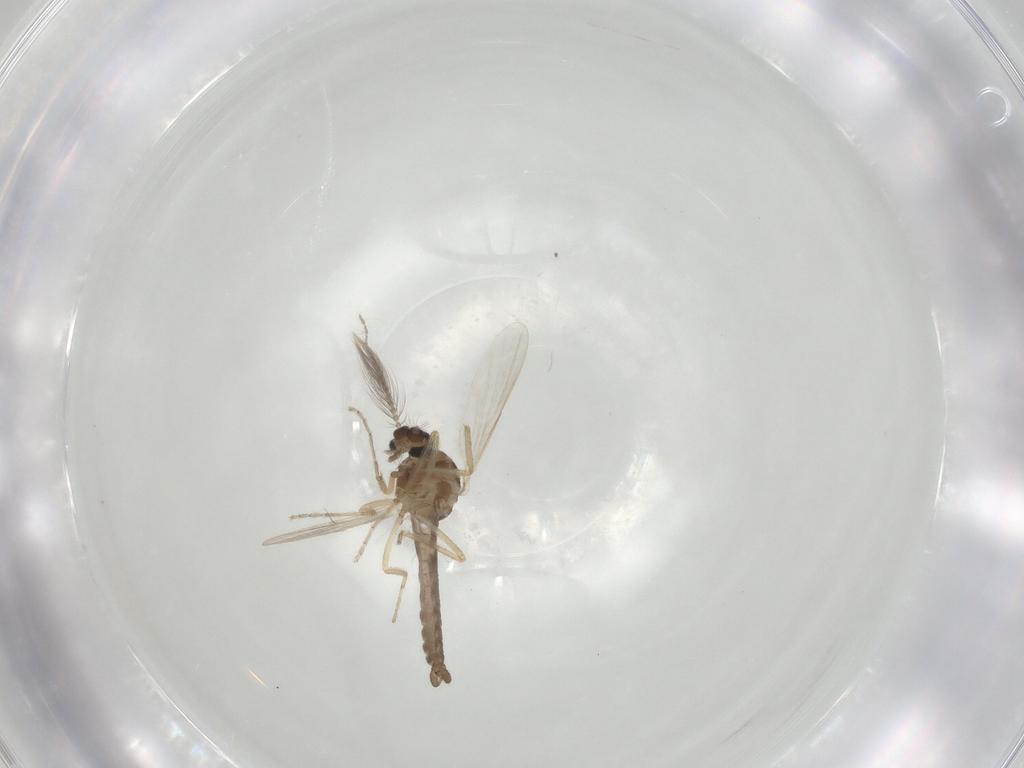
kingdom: Animalia
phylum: Arthropoda
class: Insecta
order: Diptera
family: Ceratopogonidae
